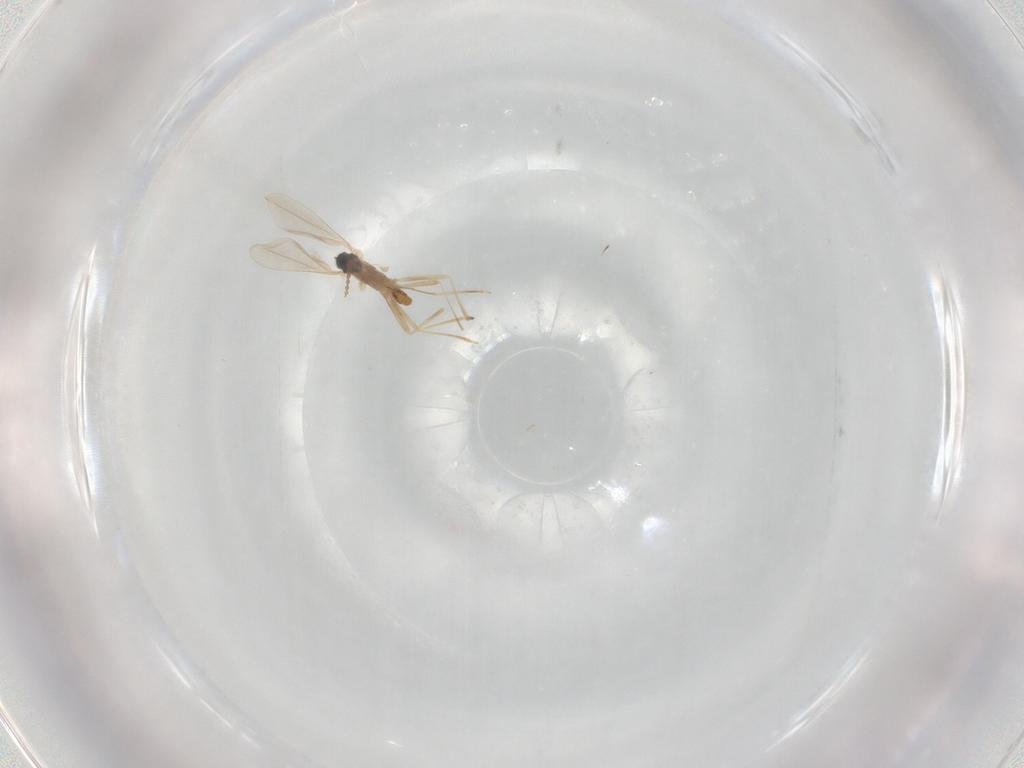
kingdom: Animalia
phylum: Arthropoda
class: Insecta
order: Diptera
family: Cecidomyiidae
